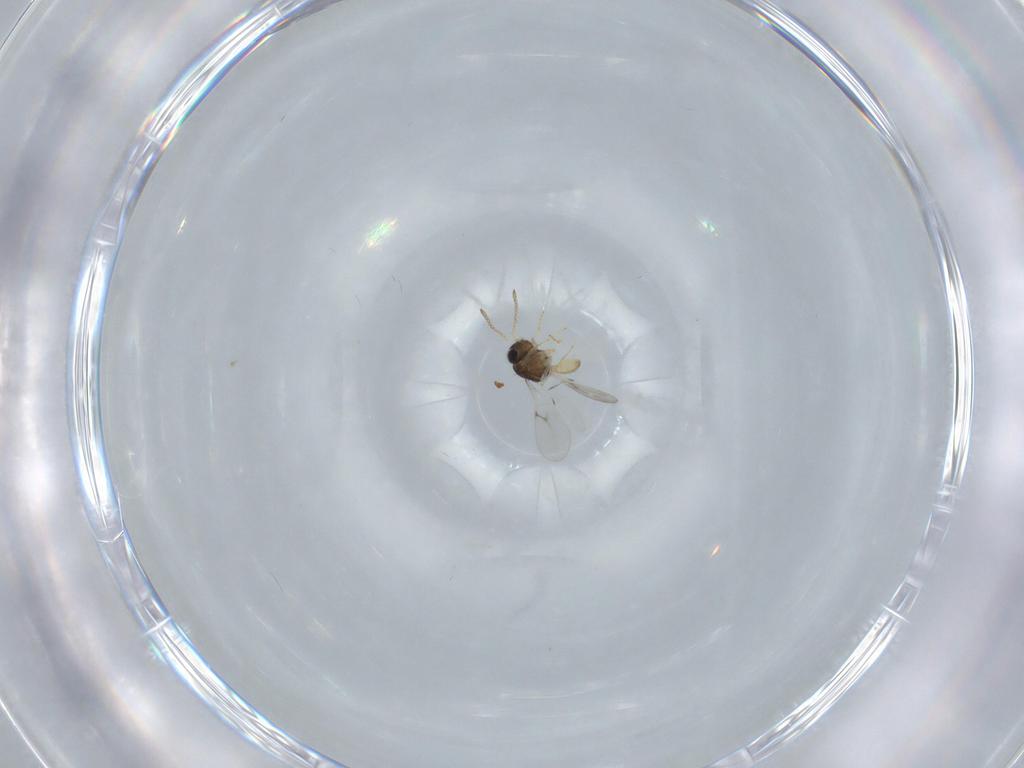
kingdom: Animalia
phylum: Arthropoda
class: Insecta
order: Hymenoptera
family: Scelionidae
